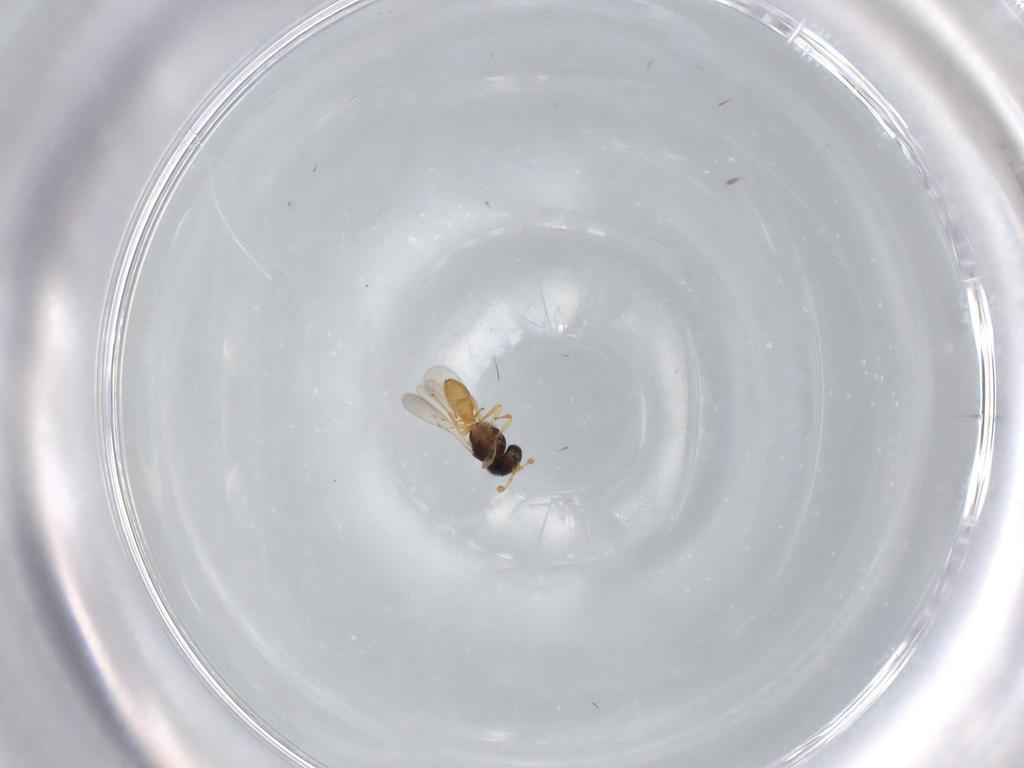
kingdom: Animalia
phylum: Arthropoda
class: Insecta
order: Hymenoptera
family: Scelionidae
